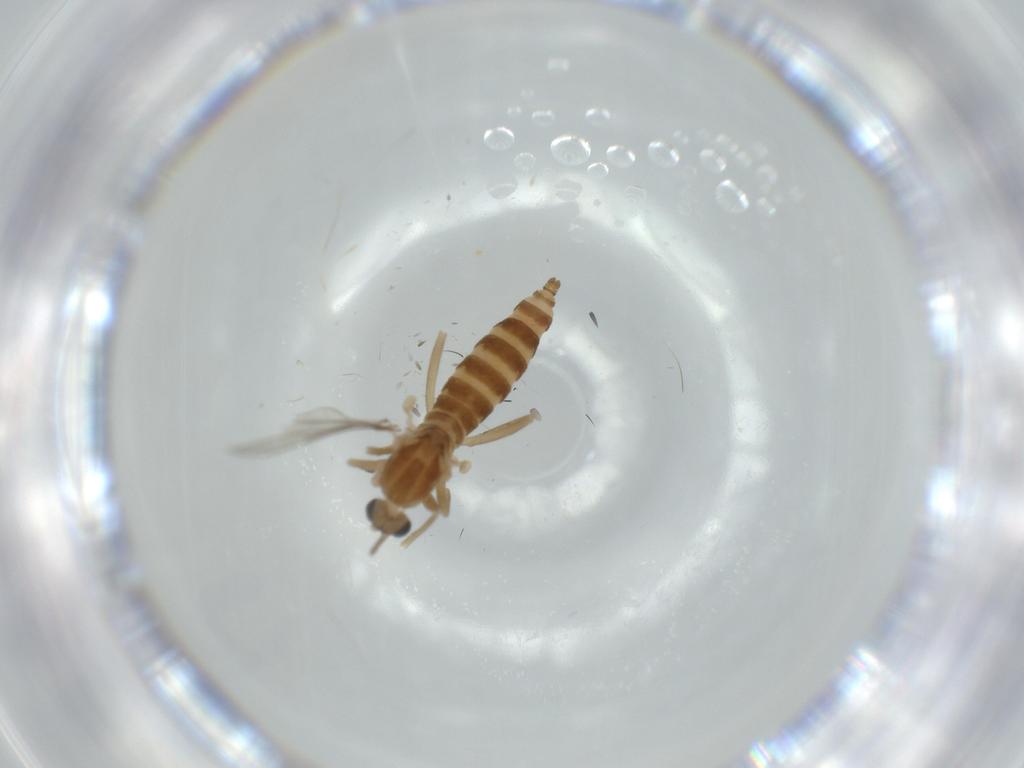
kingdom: Animalia
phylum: Arthropoda
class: Insecta
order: Diptera
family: Cecidomyiidae
